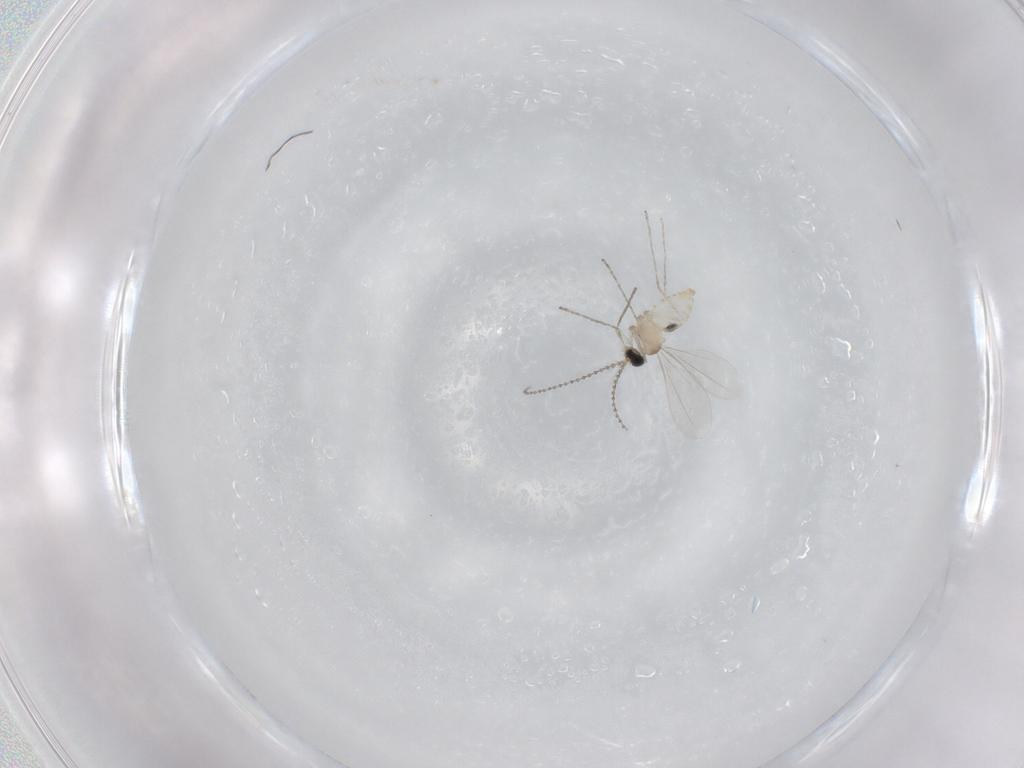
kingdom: Animalia
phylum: Arthropoda
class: Insecta
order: Diptera
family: Cecidomyiidae
